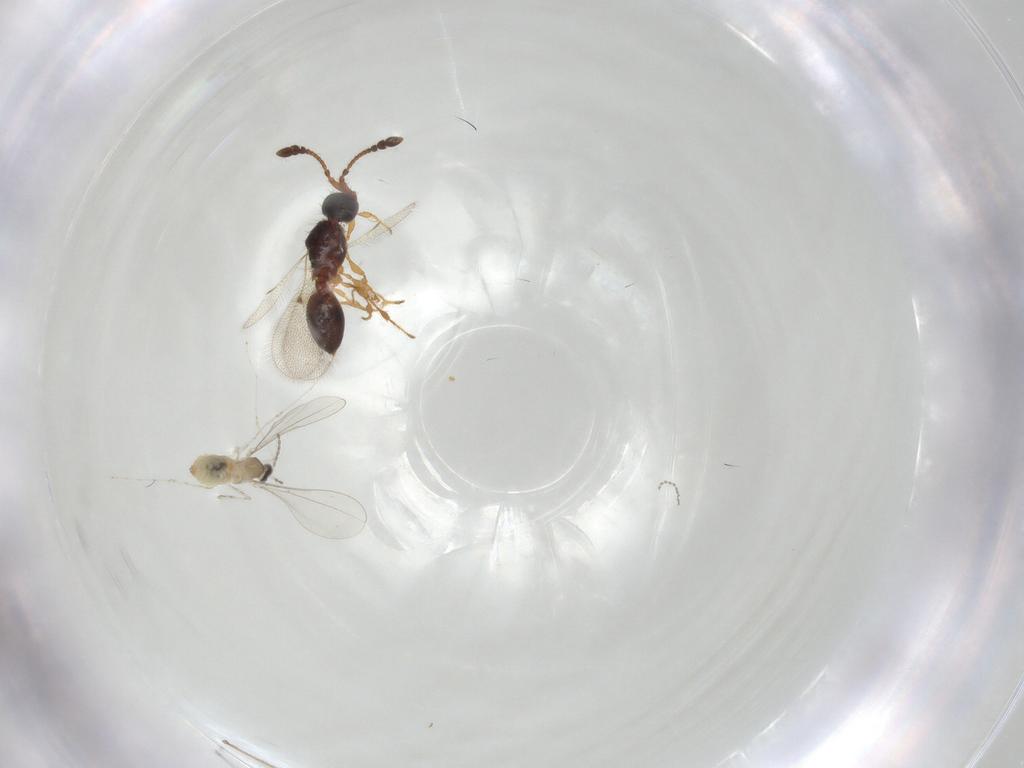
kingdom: Animalia
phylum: Arthropoda
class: Insecta
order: Diptera
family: Cecidomyiidae
